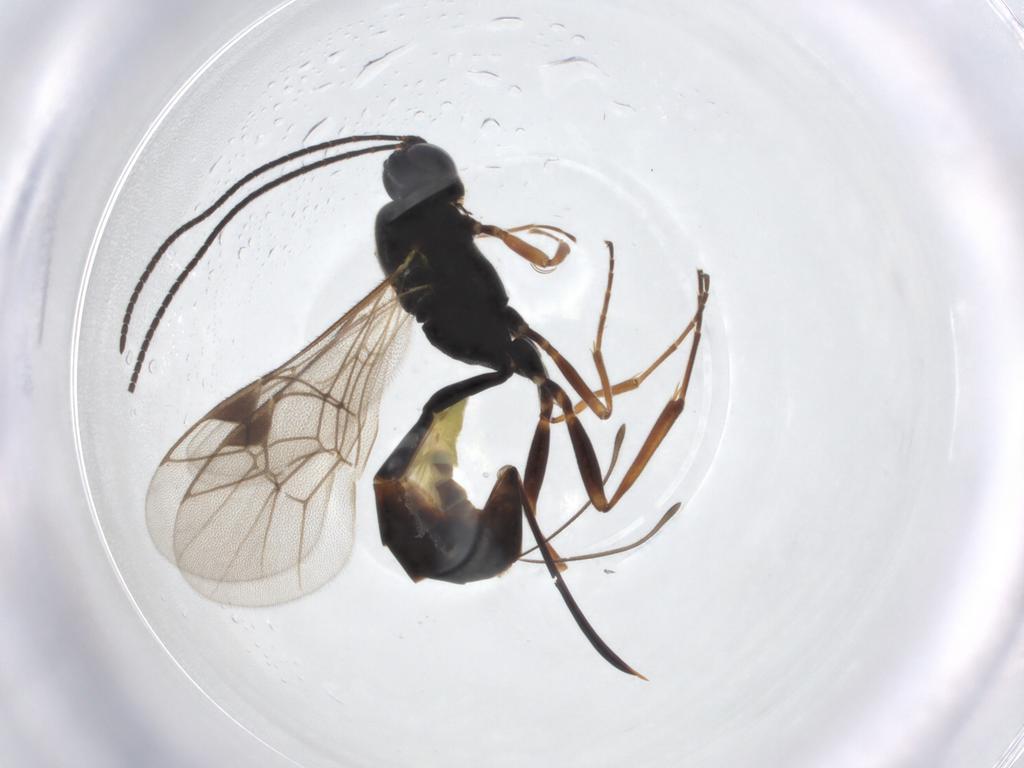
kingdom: Animalia
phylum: Arthropoda
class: Insecta
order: Hymenoptera
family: Ichneumonidae
